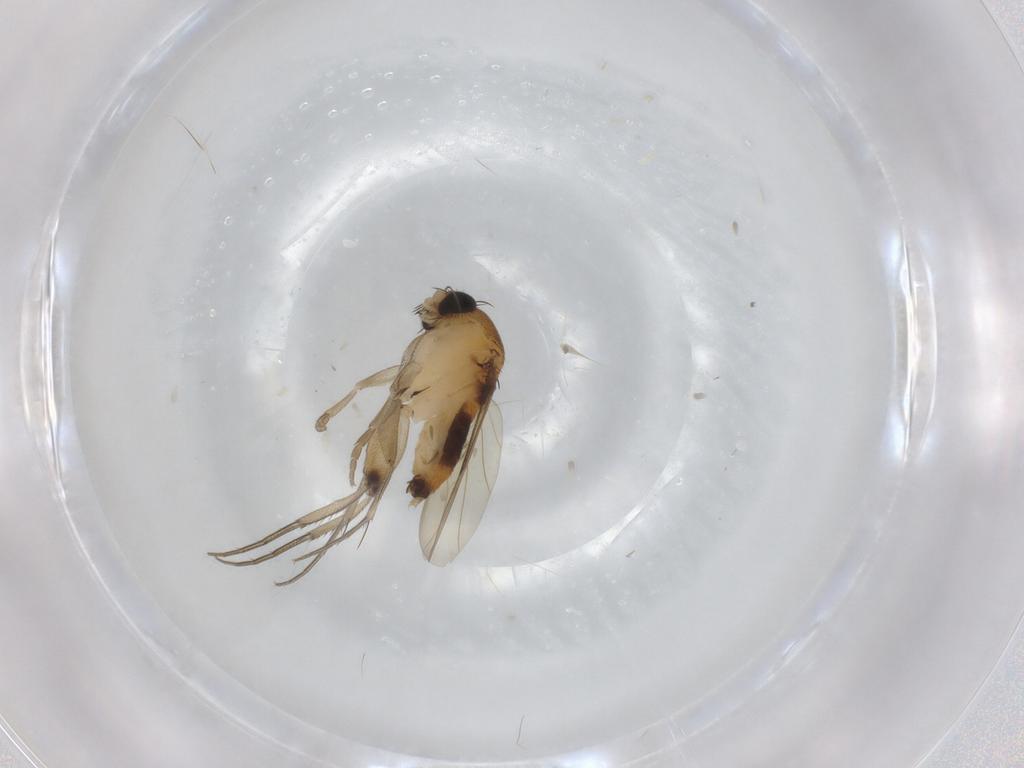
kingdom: Animalia
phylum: Arthropoda
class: Insecta
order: Diptera
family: Phoridae
